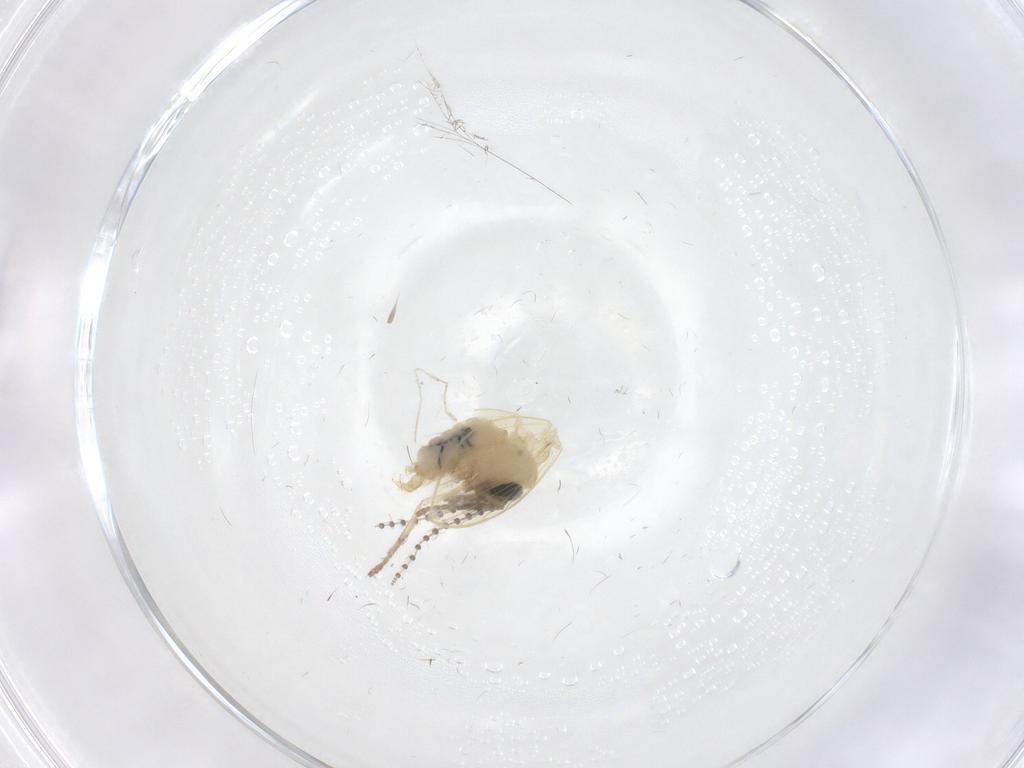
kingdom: Animalia
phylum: Arthropoda
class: Insecta
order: Diptera
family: Psychodidae
